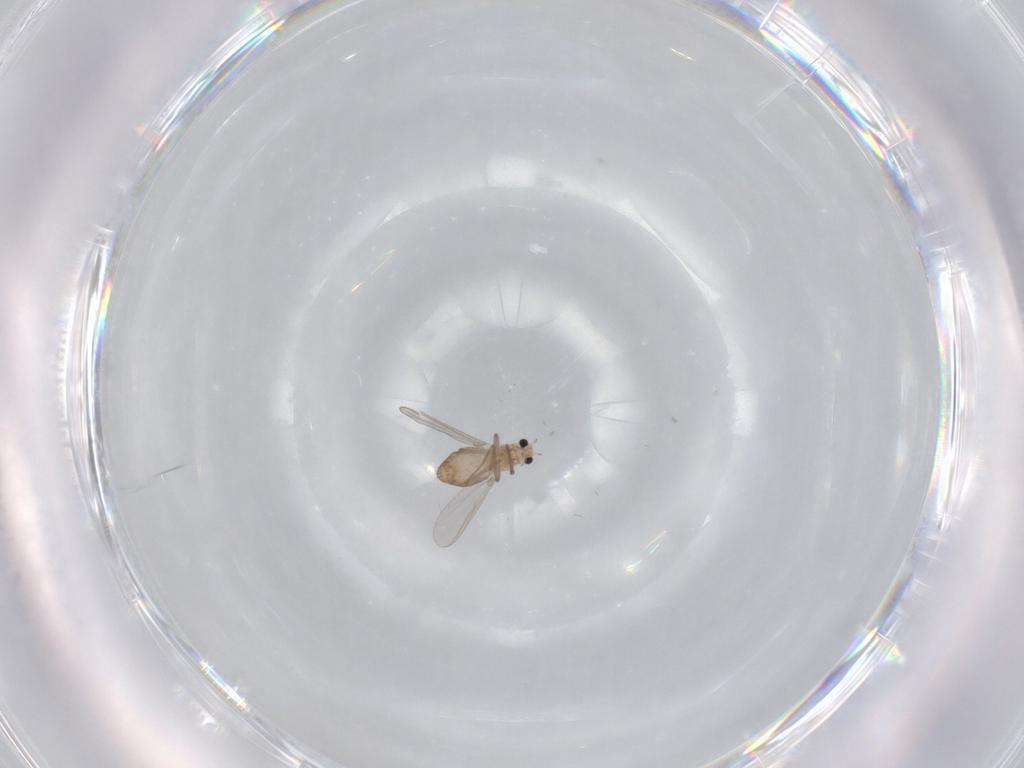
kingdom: Animalia
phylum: Arthropoda
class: Insecta
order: Diptera
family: Chironomidae
